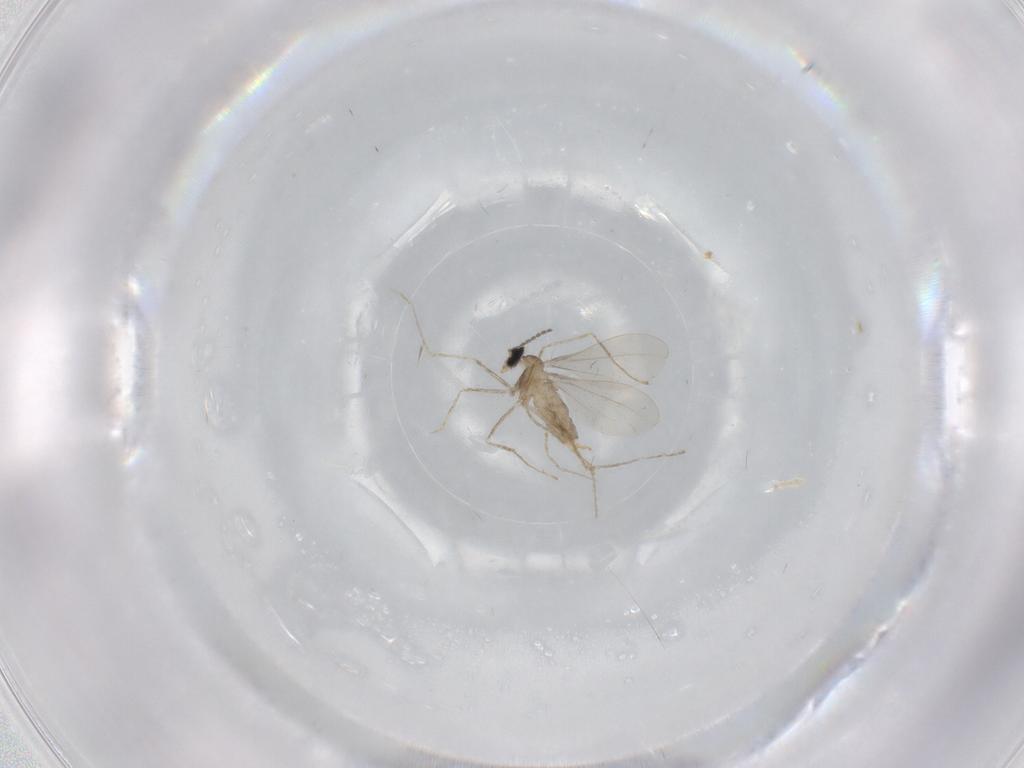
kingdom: Animalia
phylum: Arthropoda
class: Insecta
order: Diptera
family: Cecidomyiidae
